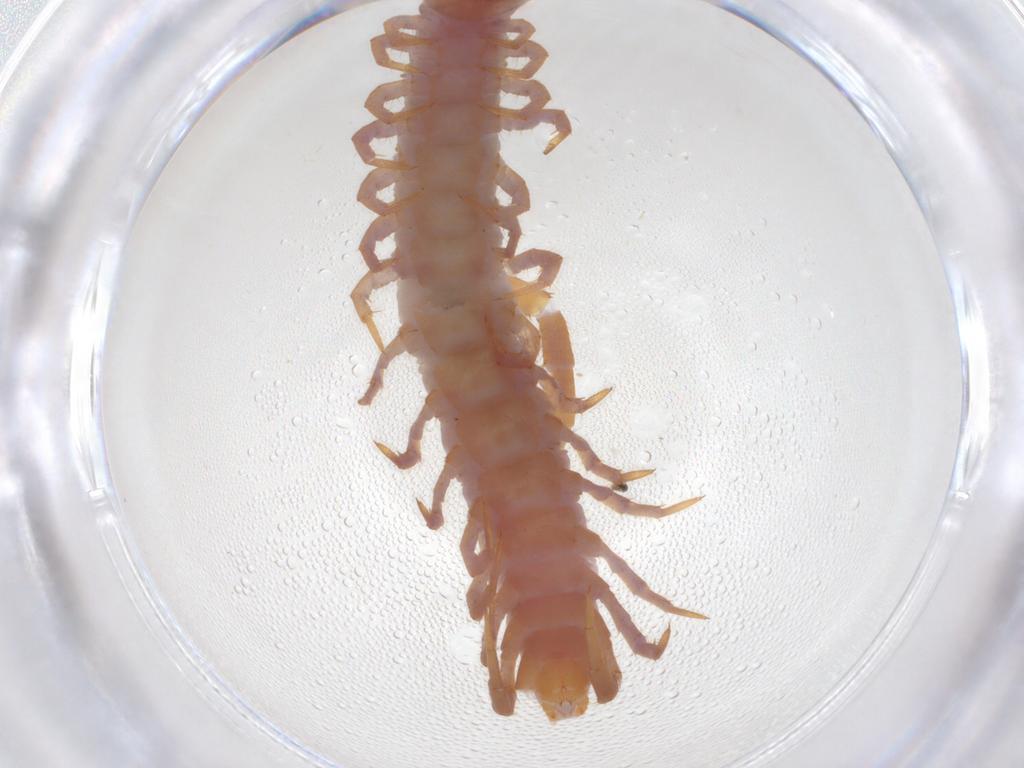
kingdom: Animalia
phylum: Arthropoda
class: Chilopoda
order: Lithobiomorpha
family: Lithobiidae
